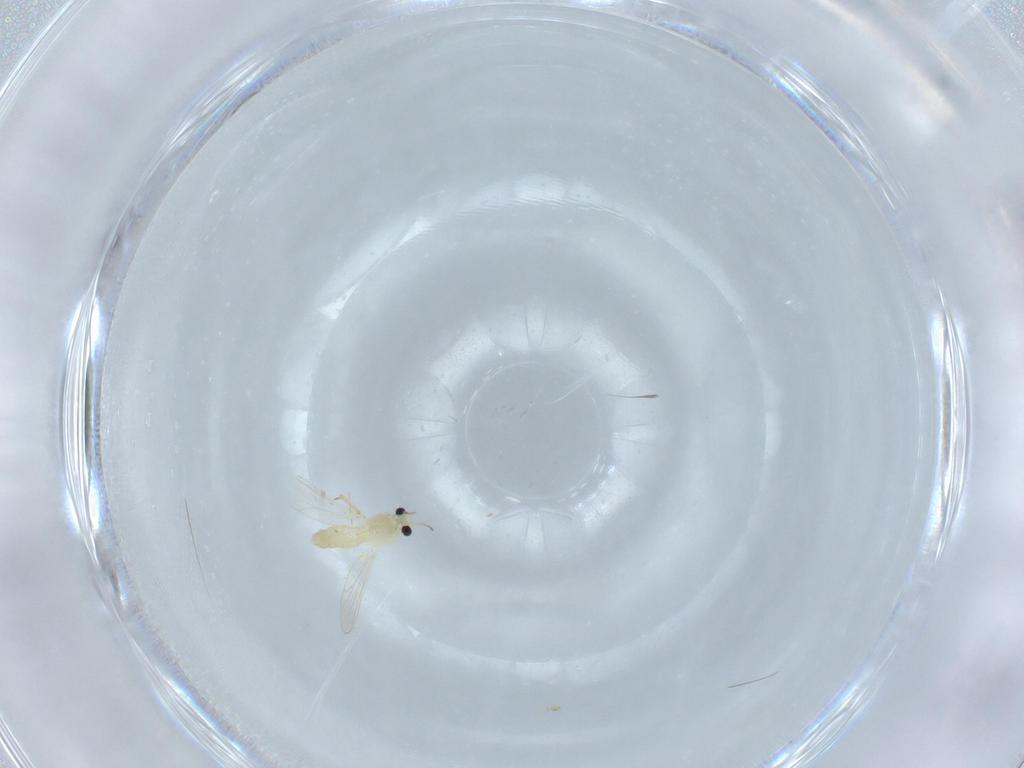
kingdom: Animalia
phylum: Arthropoda
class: Insecta
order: Diptera
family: Chironomidae
